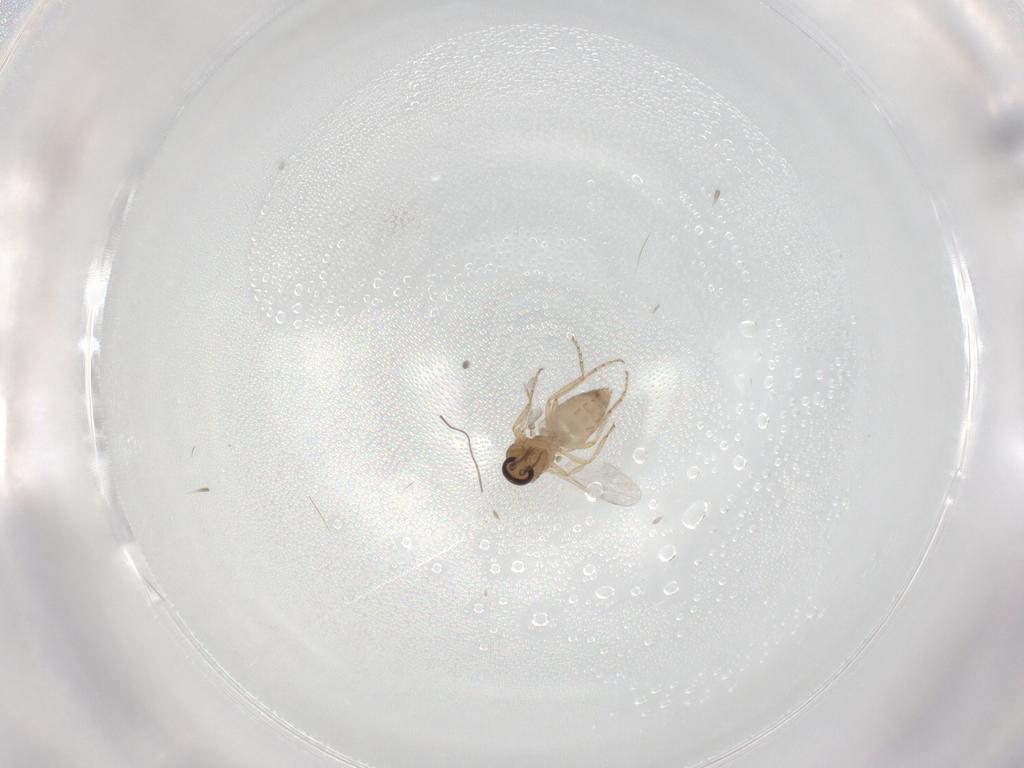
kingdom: Animalia
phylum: Arthropoda
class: Insecta
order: Diptera
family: Ceratopogonidae
